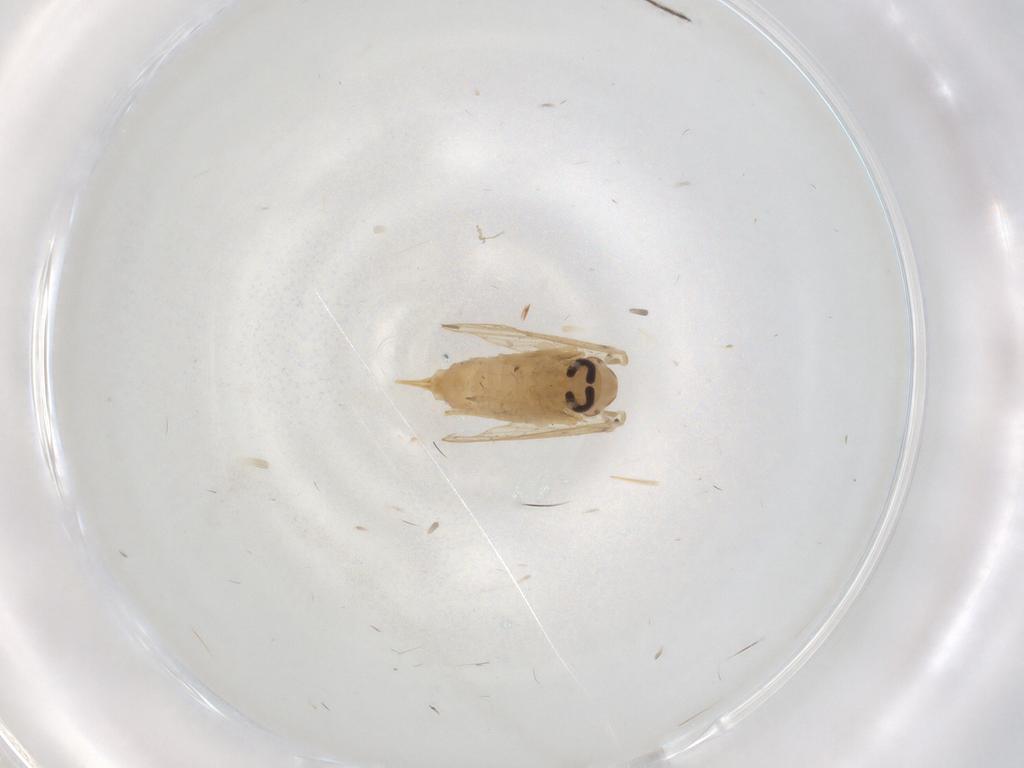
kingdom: Animalia
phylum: Arthropoda
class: Insecta
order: Diptera
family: Psychodidae
